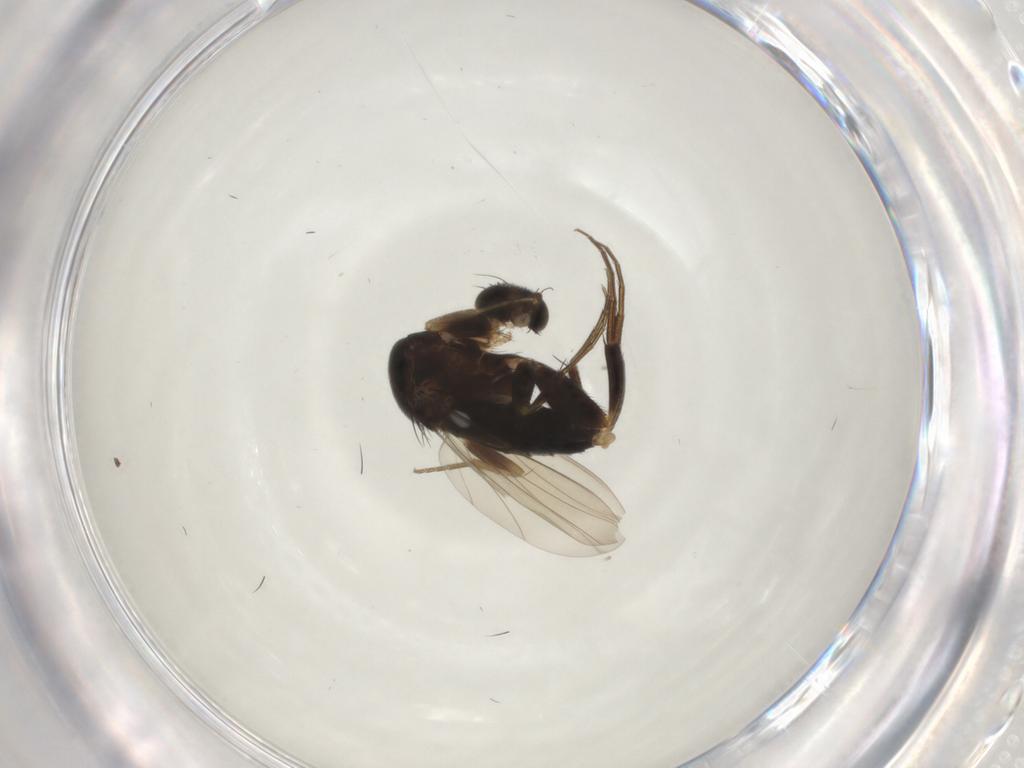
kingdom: Animalia
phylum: Arthropoda
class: Insecta
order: Diptera
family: Phoridae
